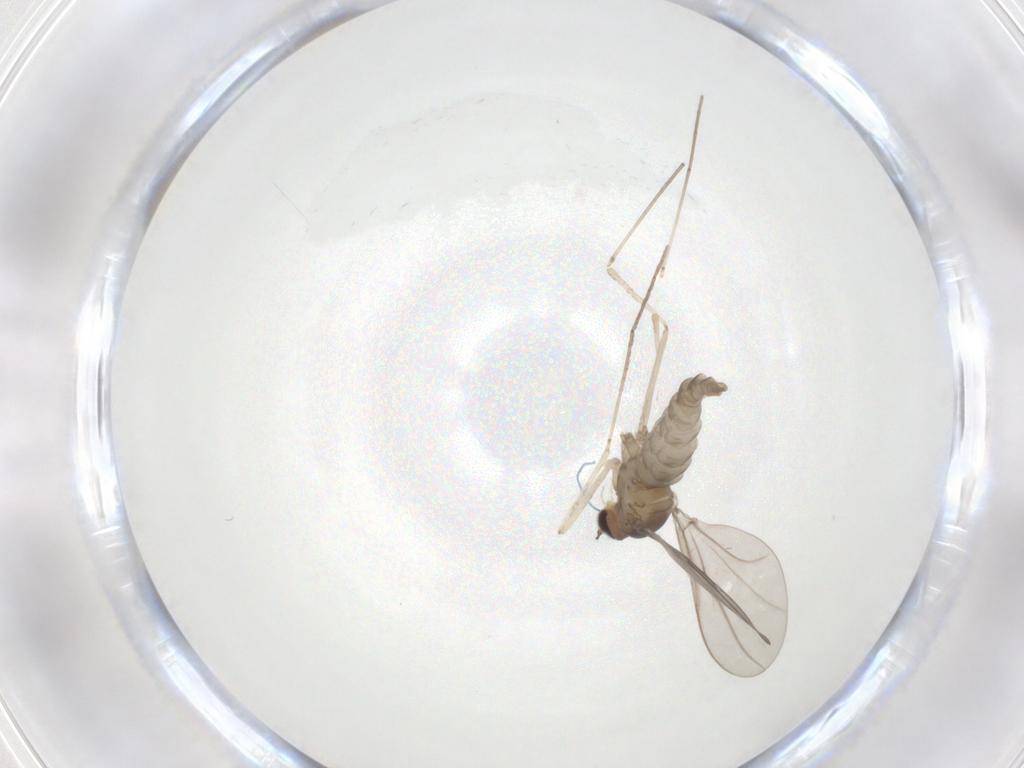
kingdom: Animalia
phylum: Arthropoda
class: Insecta
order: Diptera
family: Cecidomyiidae
